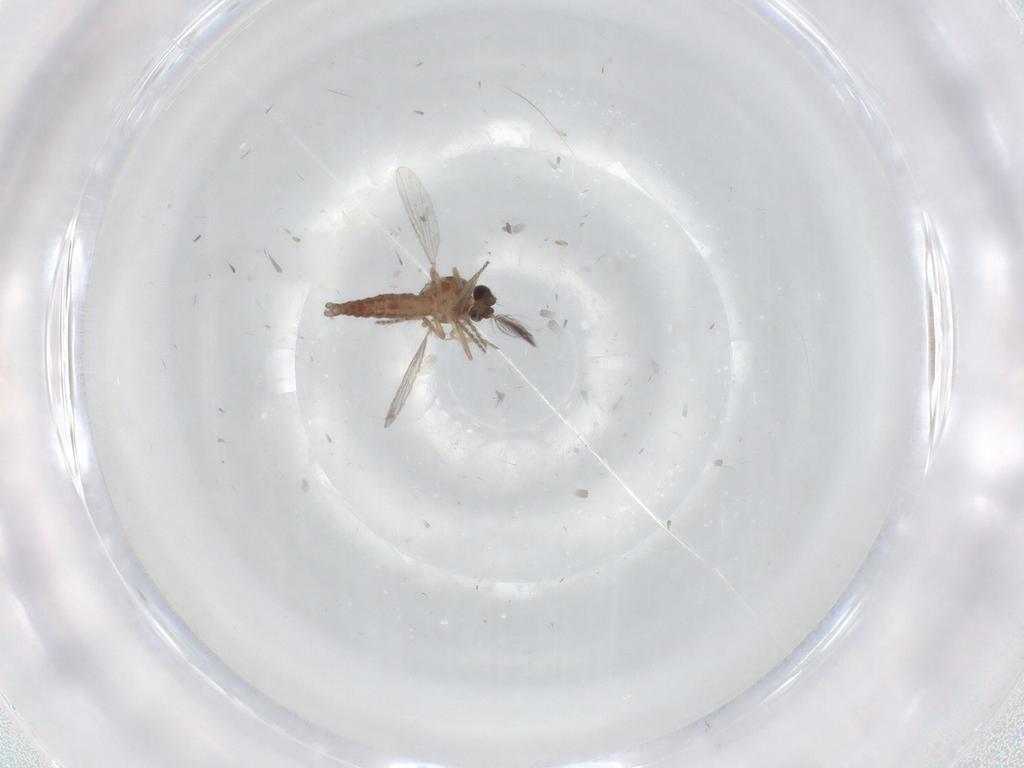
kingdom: Animalia
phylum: Arthropoda
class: Insecta
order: Diptera
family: Ceratopogonidae
